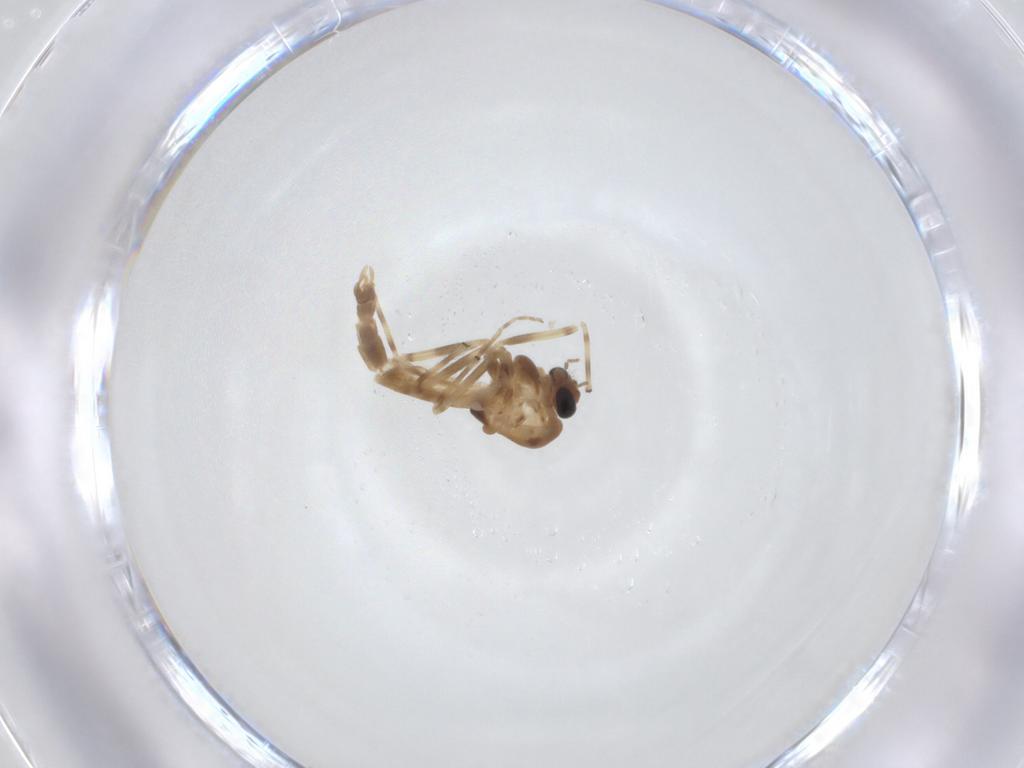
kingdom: Animalia
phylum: Arthropoda
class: Insecta
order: Diptera
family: Chironomidae
